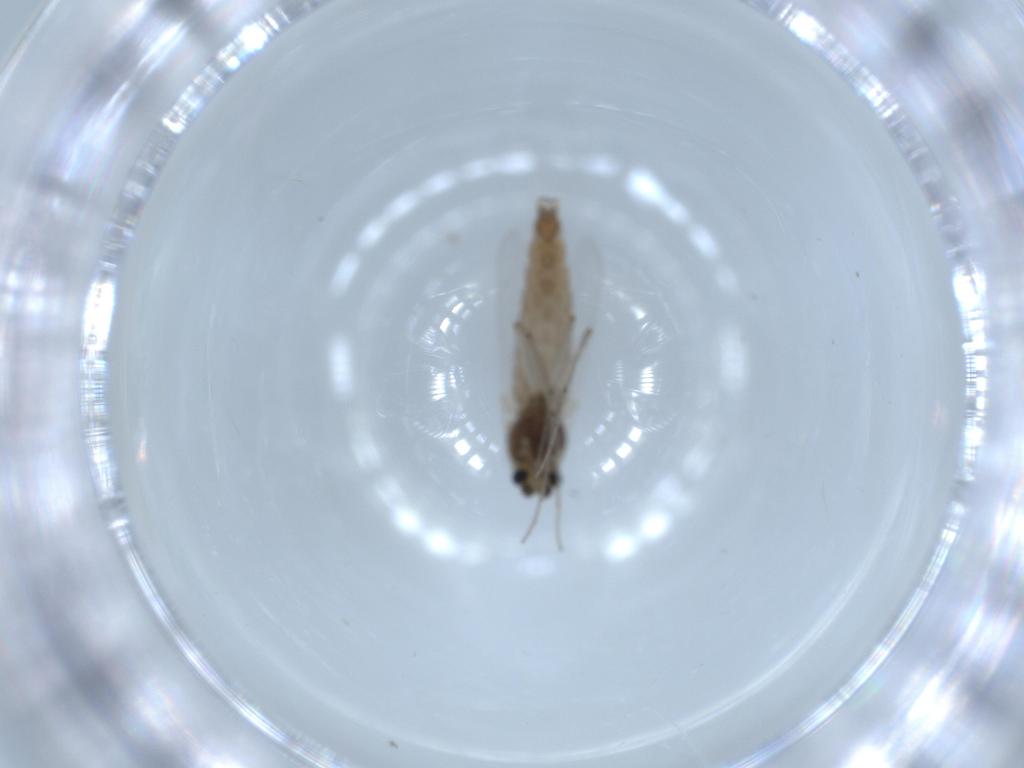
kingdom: Animalia
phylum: Arthropoda
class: Insecta
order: Diptera
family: Chironomidae
